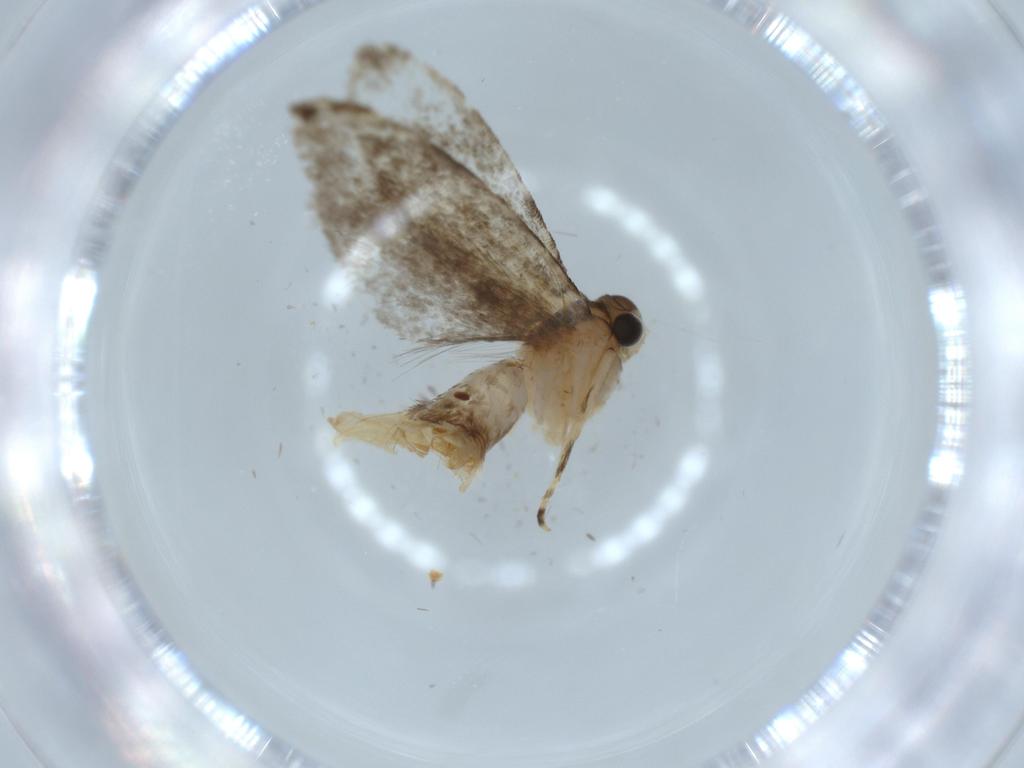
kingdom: Animalia
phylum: Arthropoda
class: Insecta
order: Lepidoptera
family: Tineidae
